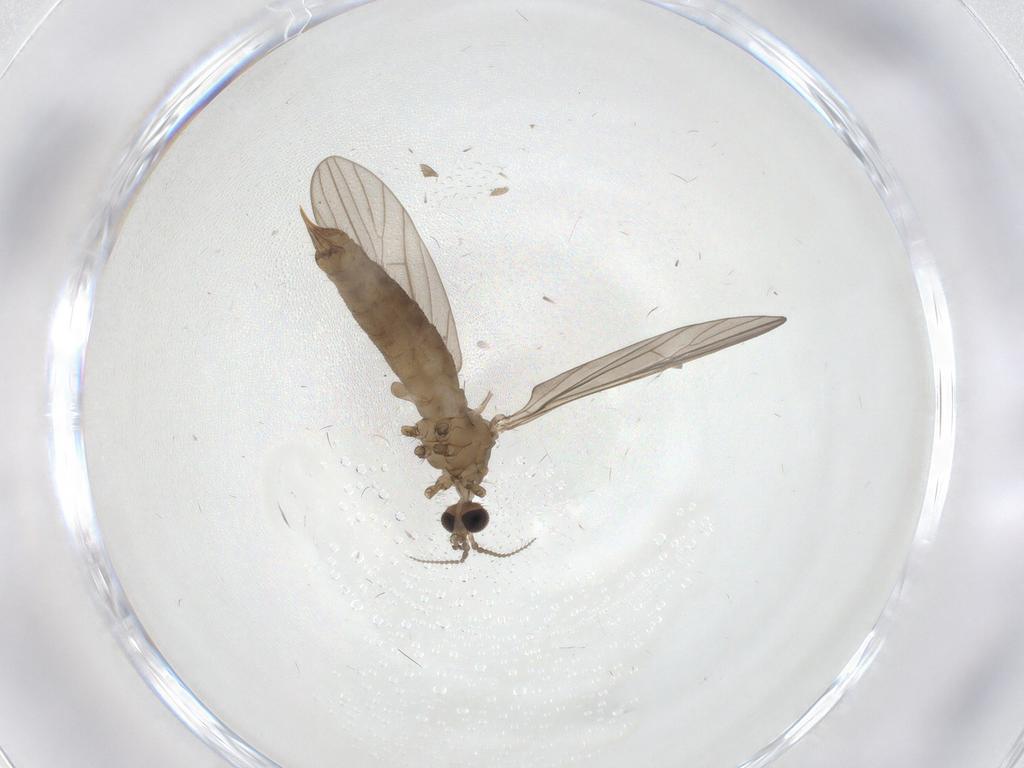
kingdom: Animalia
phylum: Arthropoda
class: Insecta
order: Diptera
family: Limoniidae
